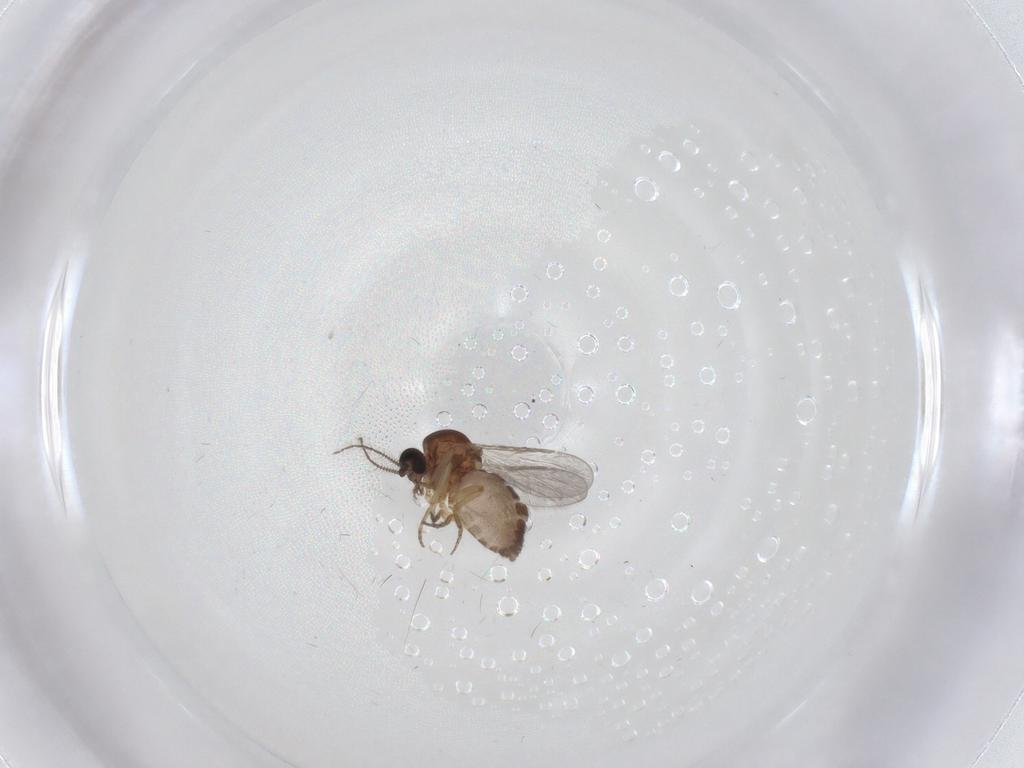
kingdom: Animalia
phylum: Arthropoda
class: Insecta
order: Diptera
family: Limoniidae
